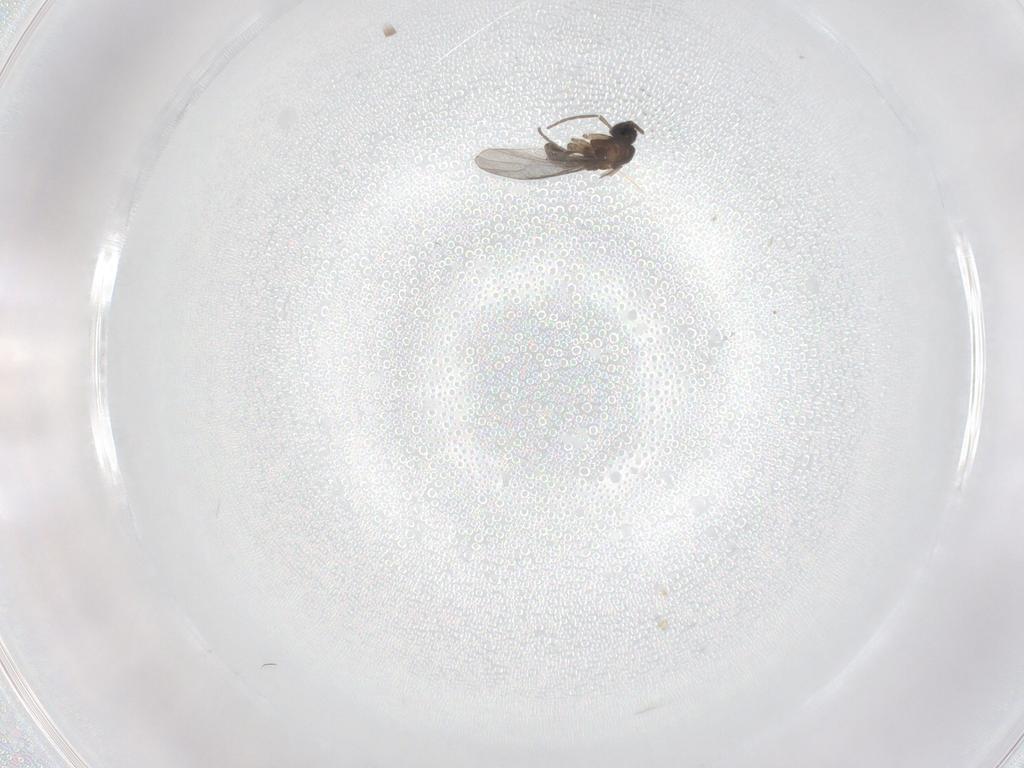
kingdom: Animalia
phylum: Arthropoda
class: Insecta
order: Diptera
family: Sciaridae
